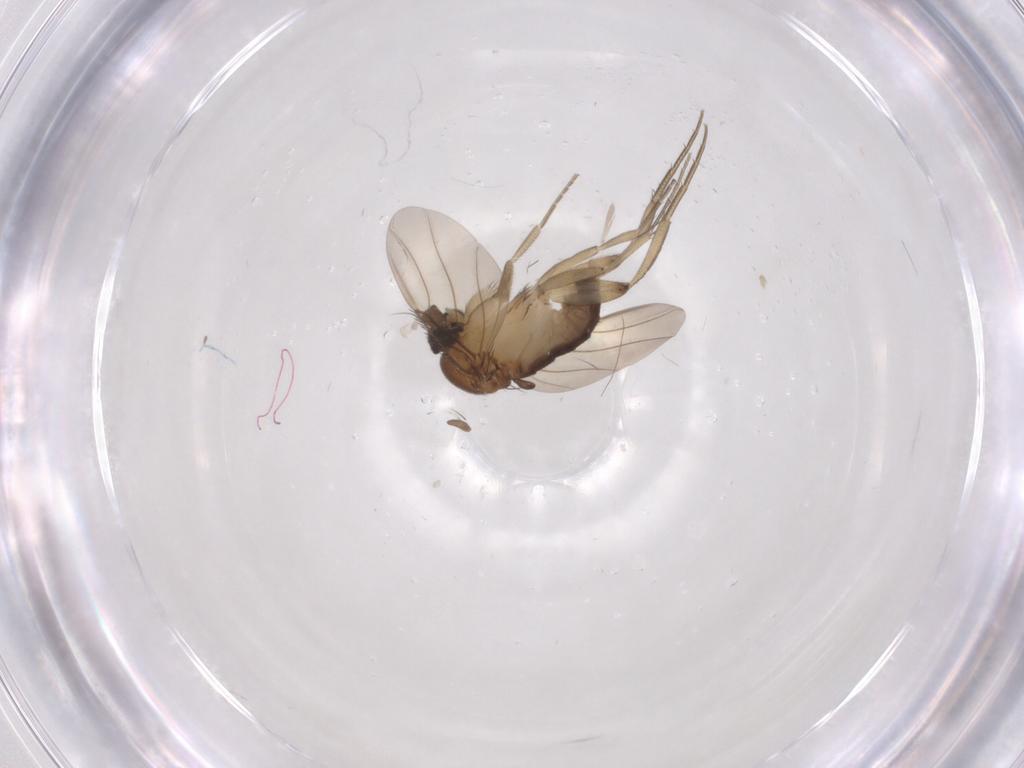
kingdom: Animalia
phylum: Arthropoda
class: Insecta
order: Diptera
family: Phoridae
